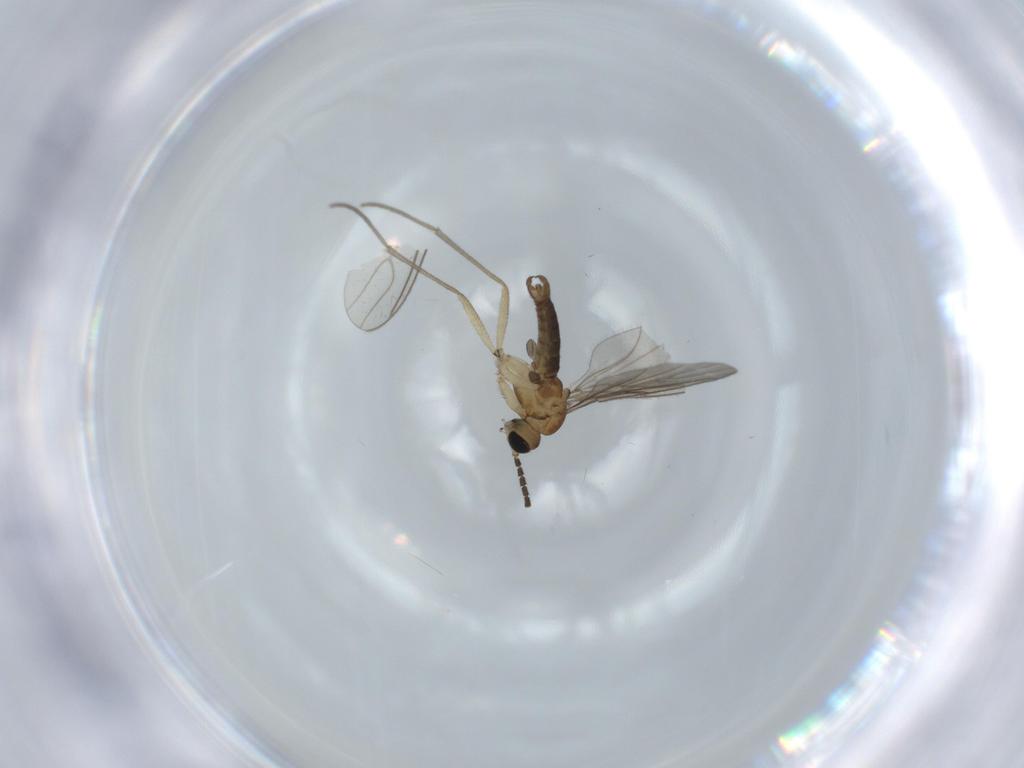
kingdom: Animalia
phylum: Arthropoda
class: Insecta
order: Diptera
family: Sciaridae
